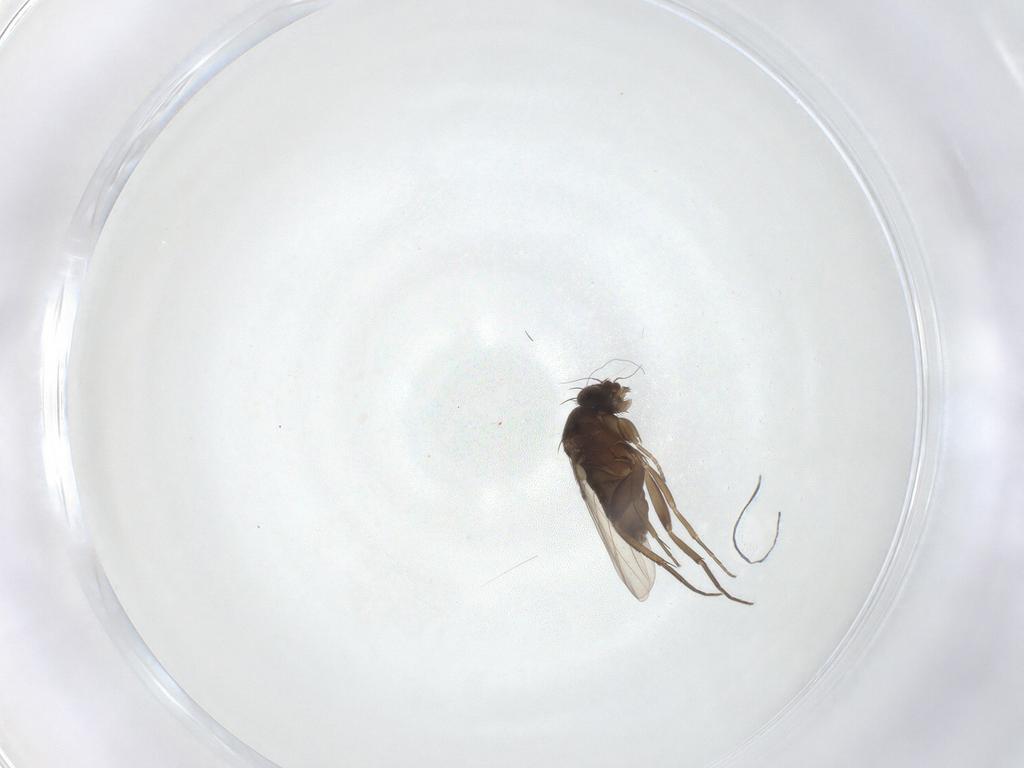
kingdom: Animalia
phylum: Arthropoda
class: Insecta
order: Diptera
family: Phoridae
